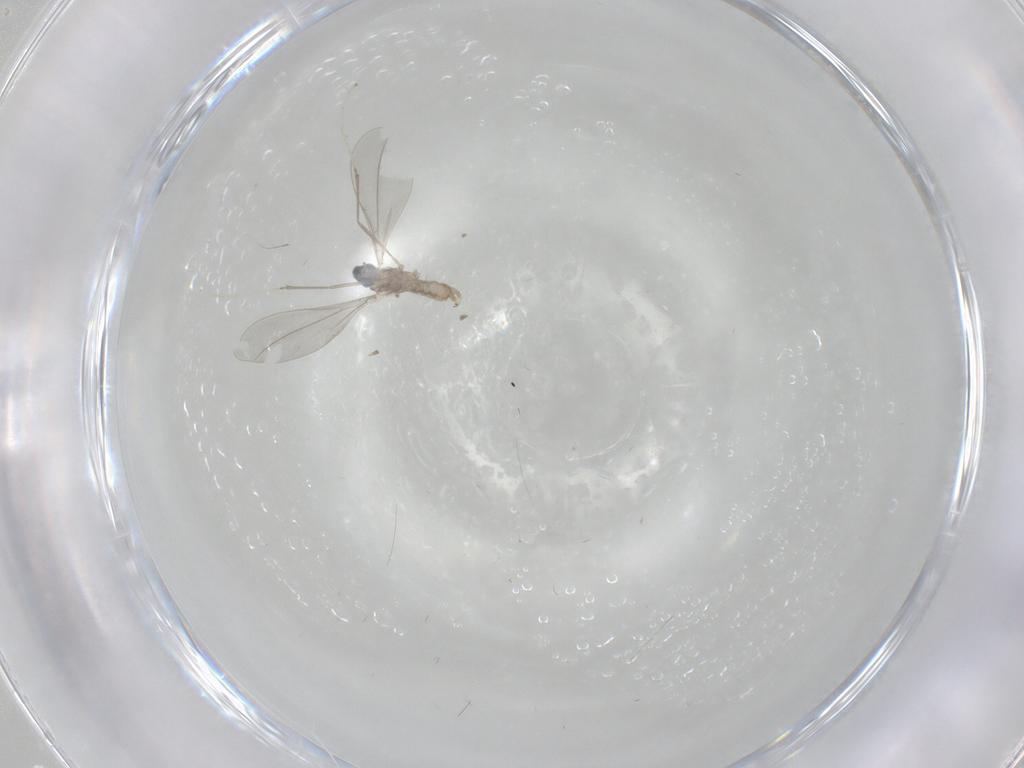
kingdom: Animalia
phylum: Arthropoda
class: Insecta
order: Diptera
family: Cecidomyiidae
